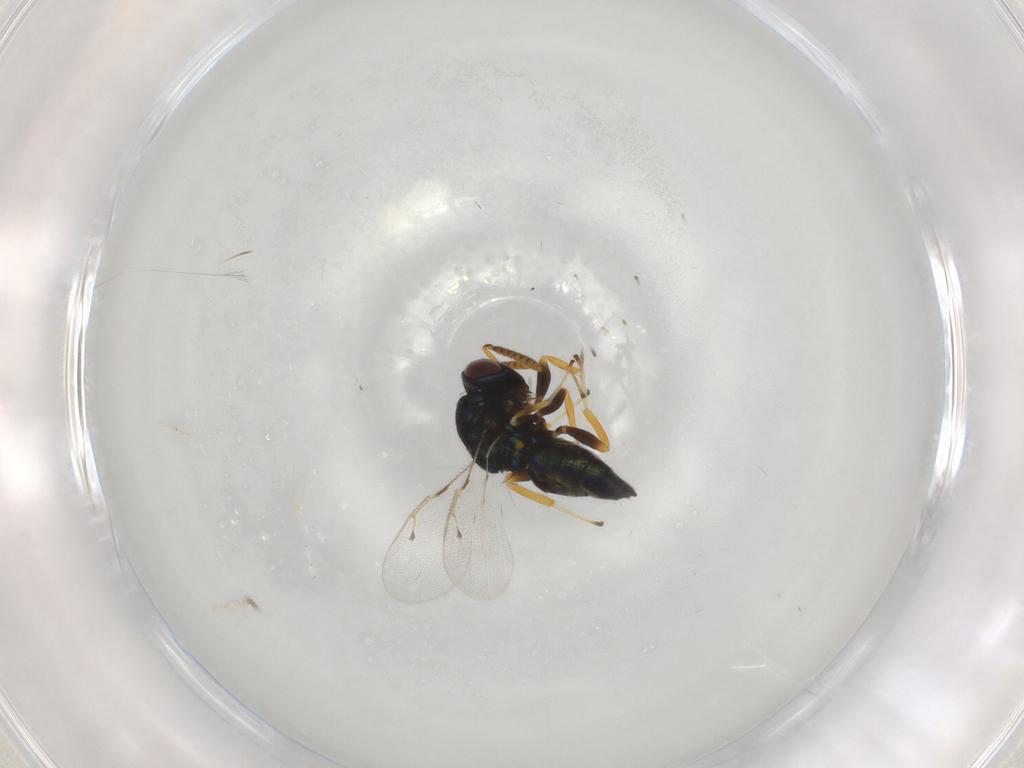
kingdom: Animalia
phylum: Arthropoda
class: Insecta
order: Hymenoptera
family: Pteromalidae
